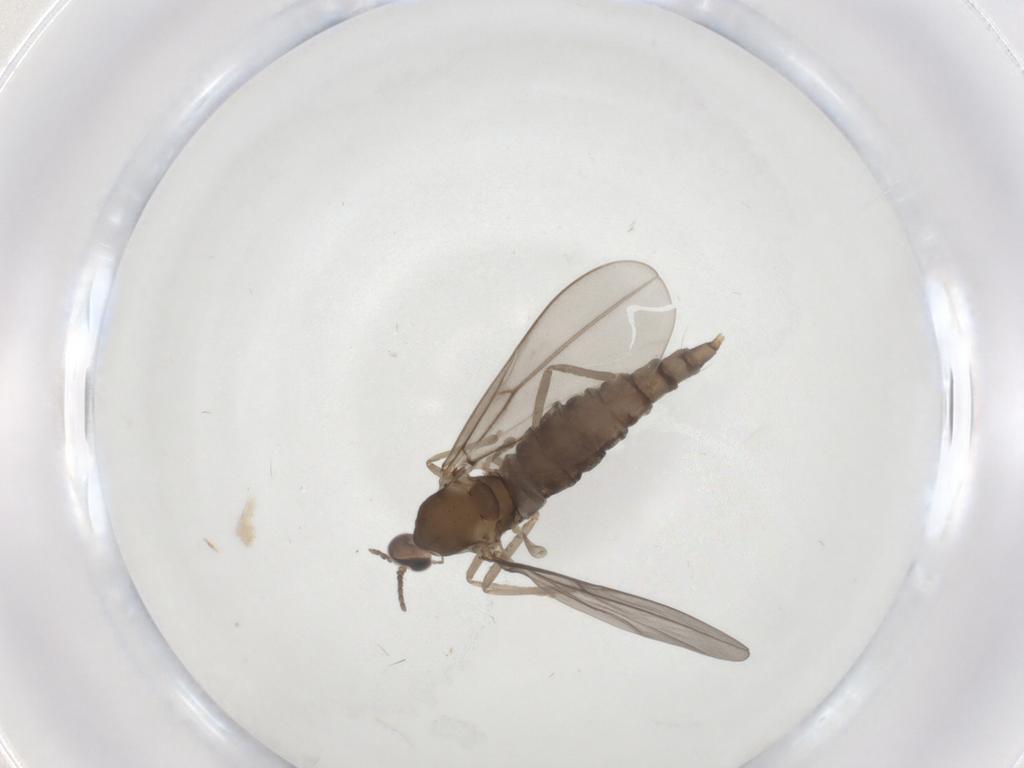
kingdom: Animalia
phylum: Arthropoda
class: Insecta
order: Diptera
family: Cecidomyiidae
